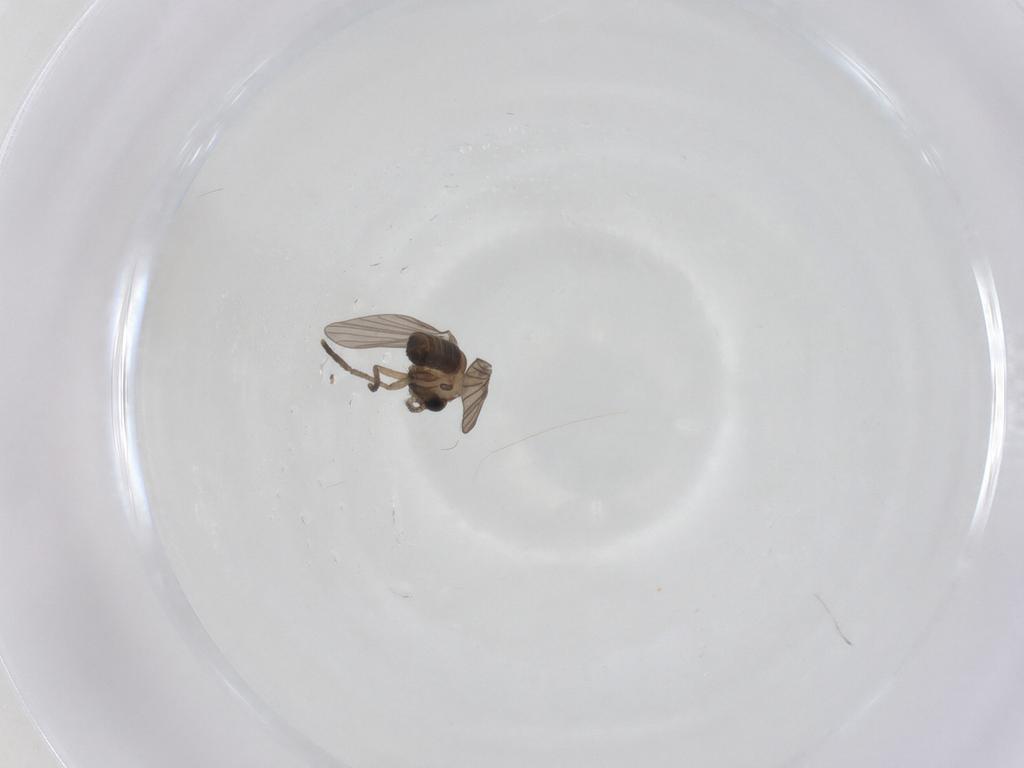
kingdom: Animalia
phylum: Arthropoda
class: Insecta
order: Diptera
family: Psychodidae
